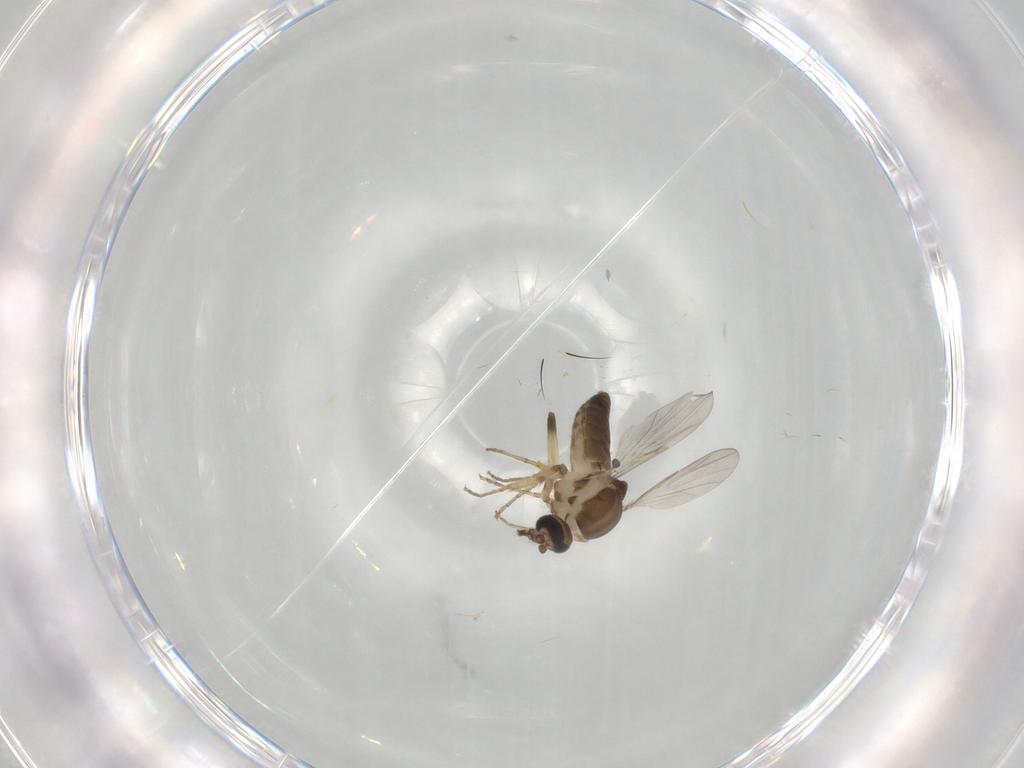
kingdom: Animalia
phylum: Arthropoda
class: Insecta
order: Diptera
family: Ceratopogonidae
